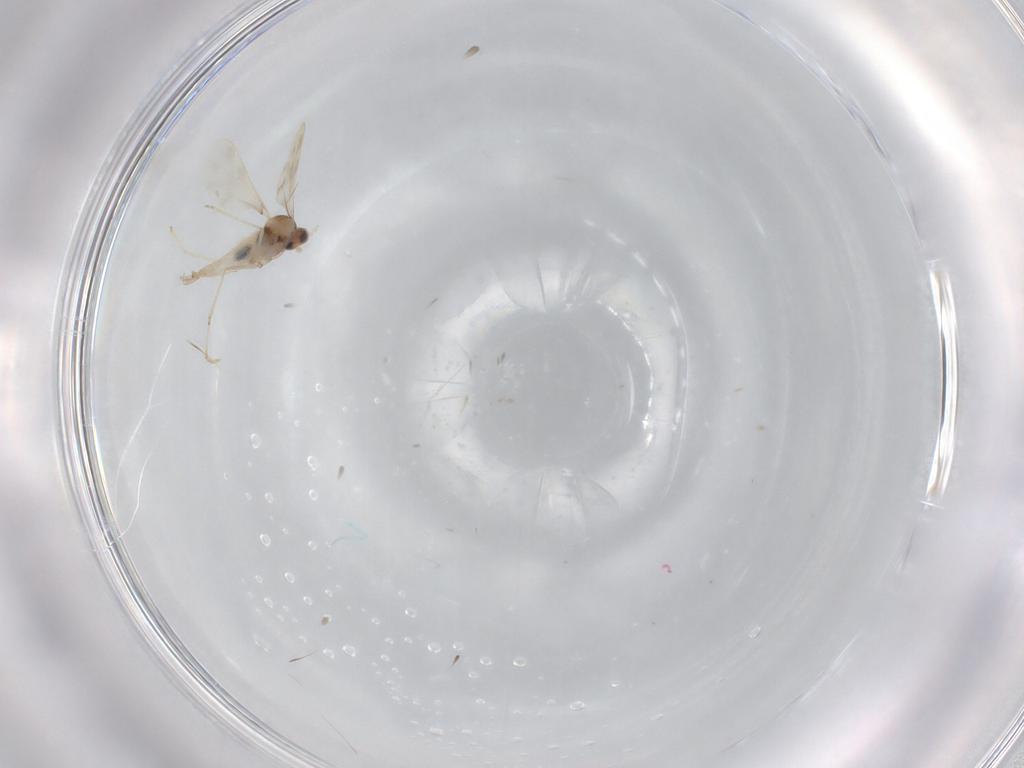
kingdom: Animalia
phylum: Arthropoda
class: Insecta
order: Diptera
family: Cecidomyiidae
